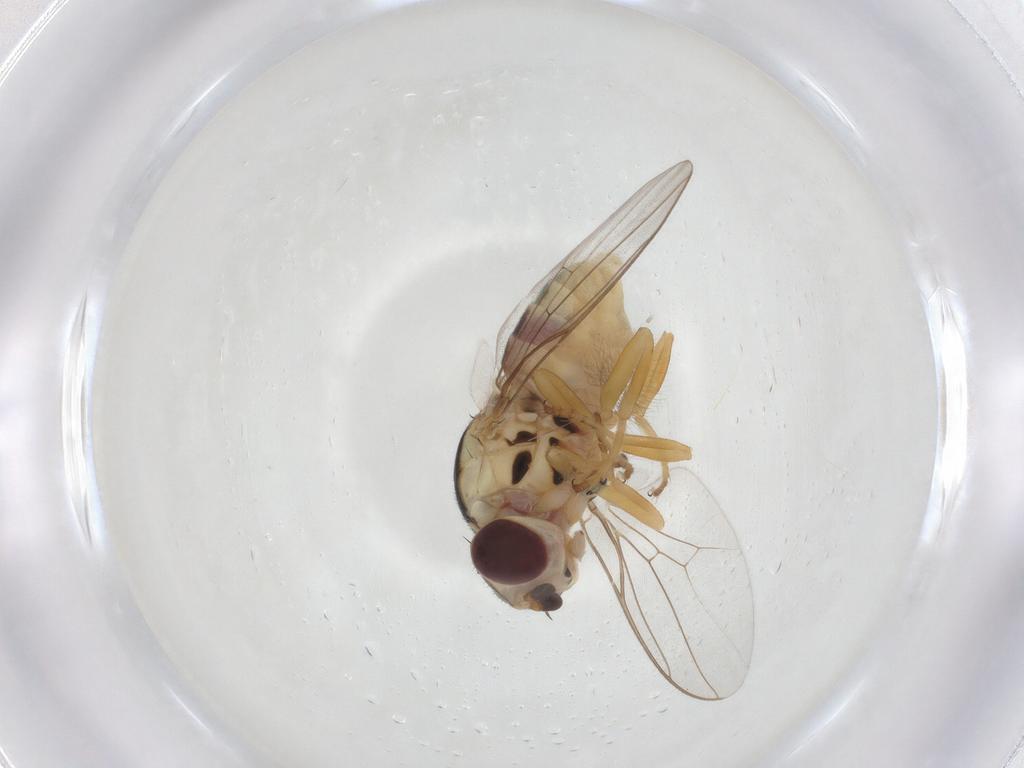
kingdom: Animalia
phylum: Arthropoda
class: Insecta
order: Diptera
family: Chloropidae
